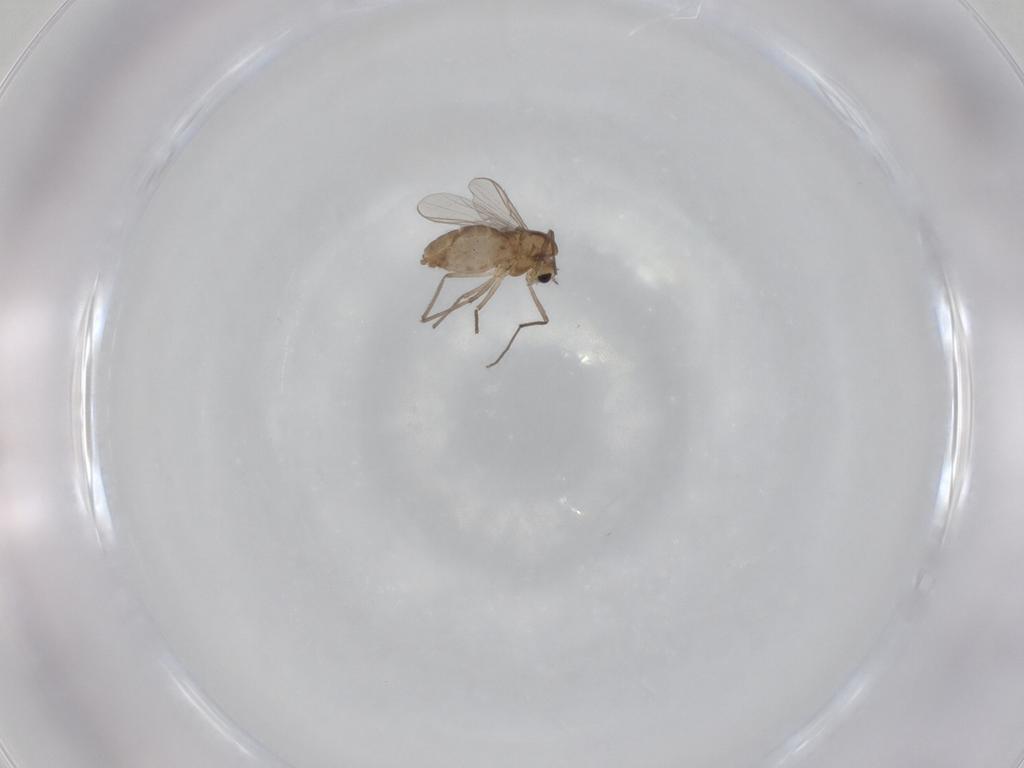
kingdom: Animalia
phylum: Arthropoda
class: Insecta
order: Diptera
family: Chironomidae
